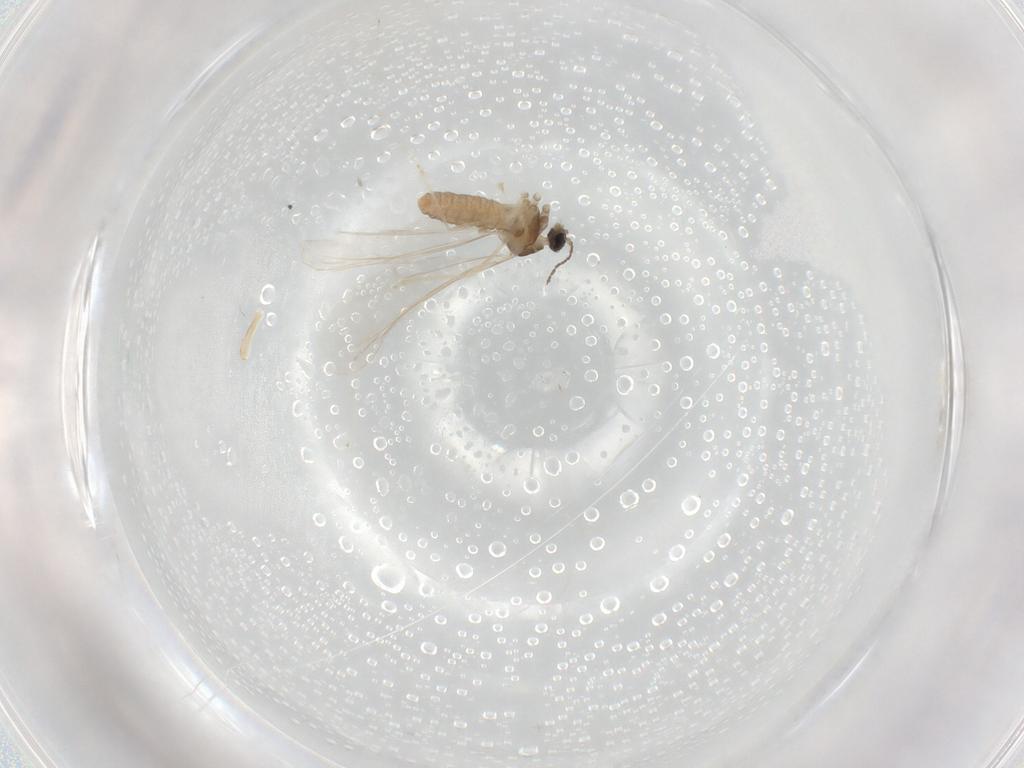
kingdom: Animalia
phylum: Arthropoda
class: Insecta
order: Diptera
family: Cecidomyiidae
